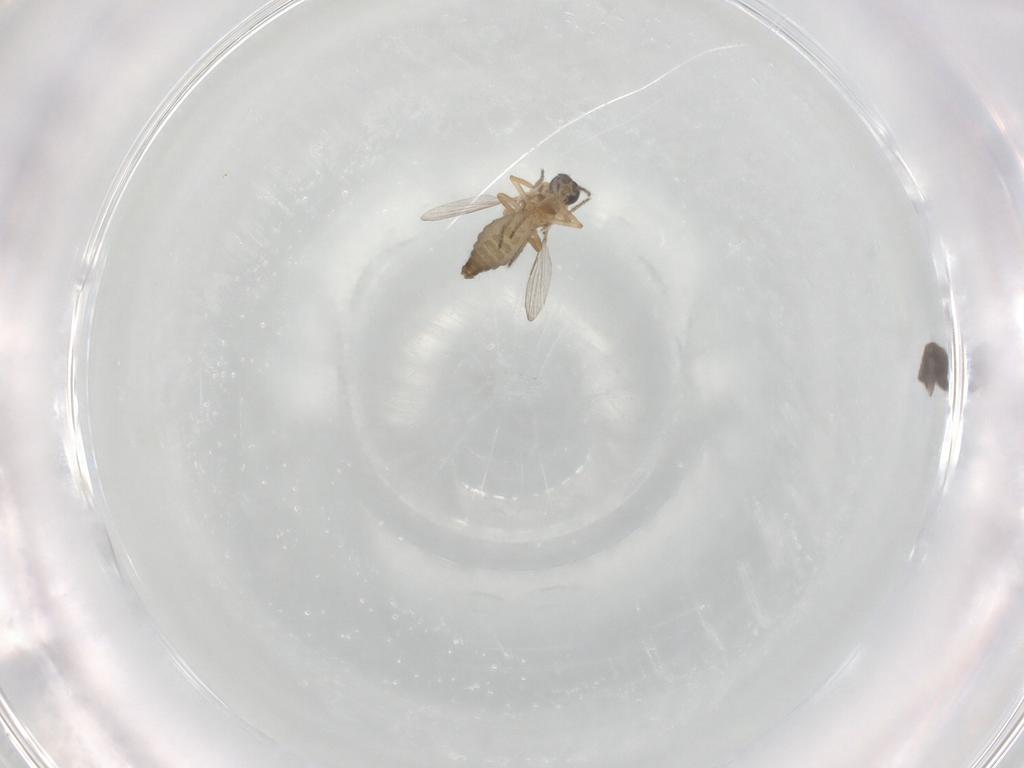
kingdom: Animalia
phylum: Arthropoda
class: Insecta
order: Diptera
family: Ceratopogonidae
